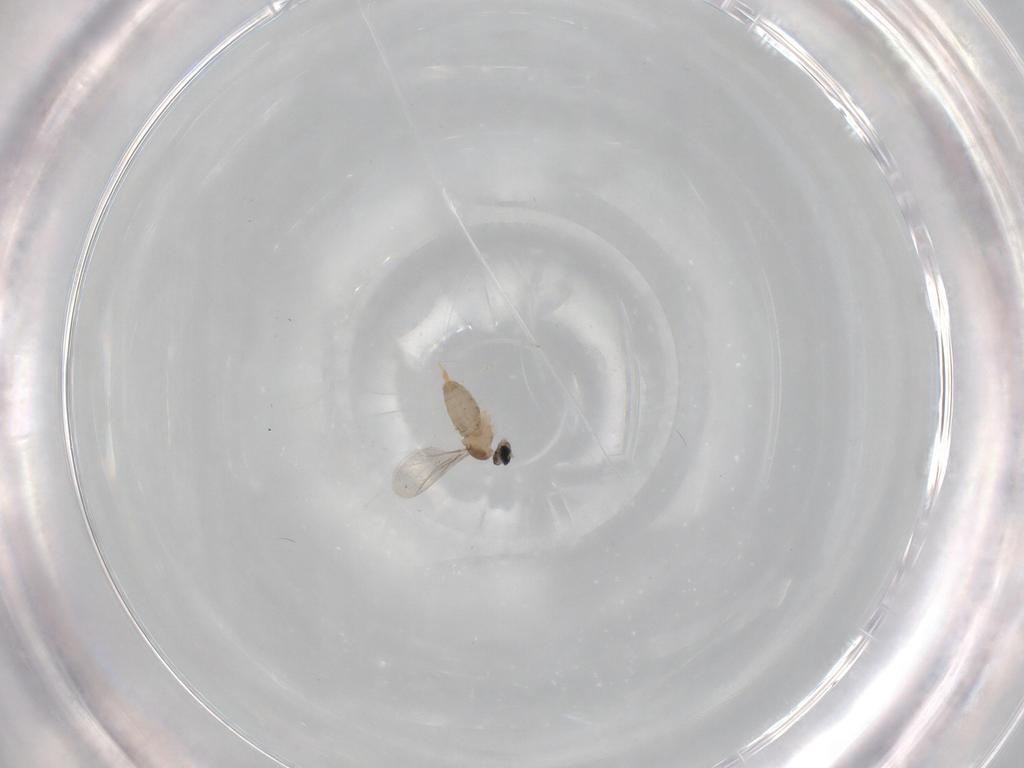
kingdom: Animalia
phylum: Arthropoda
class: Insecta
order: Diptera
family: Cecidomyiidae
